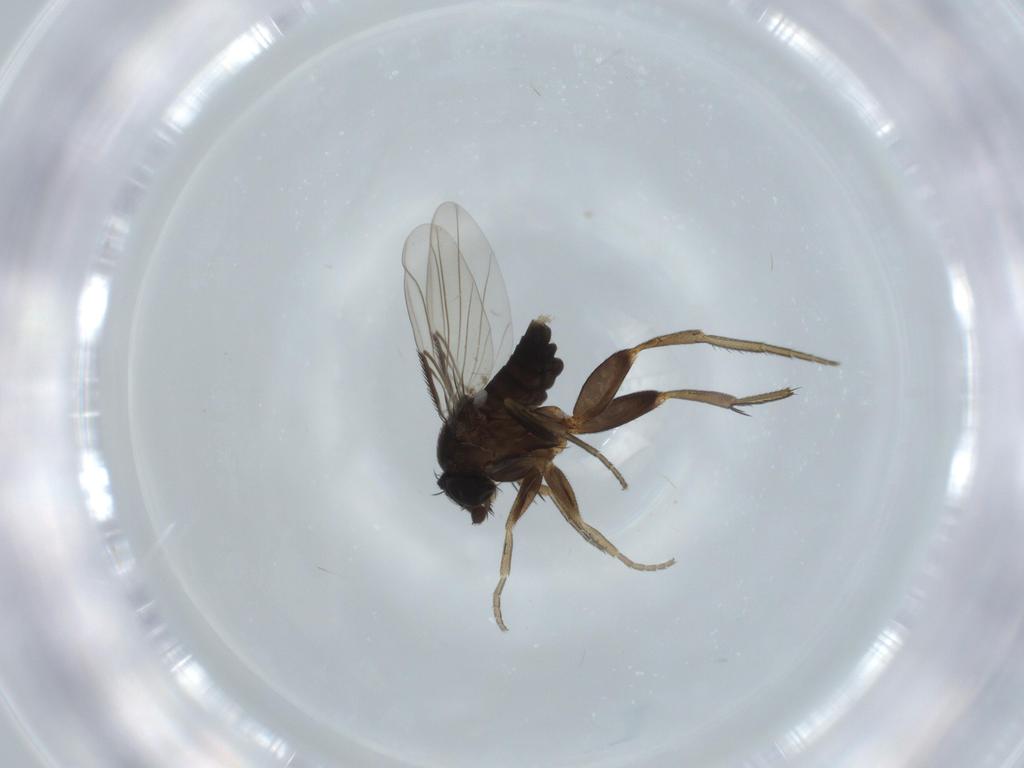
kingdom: Animalia
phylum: Arthropoda
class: Insecta
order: Diptera
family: Phoridae
